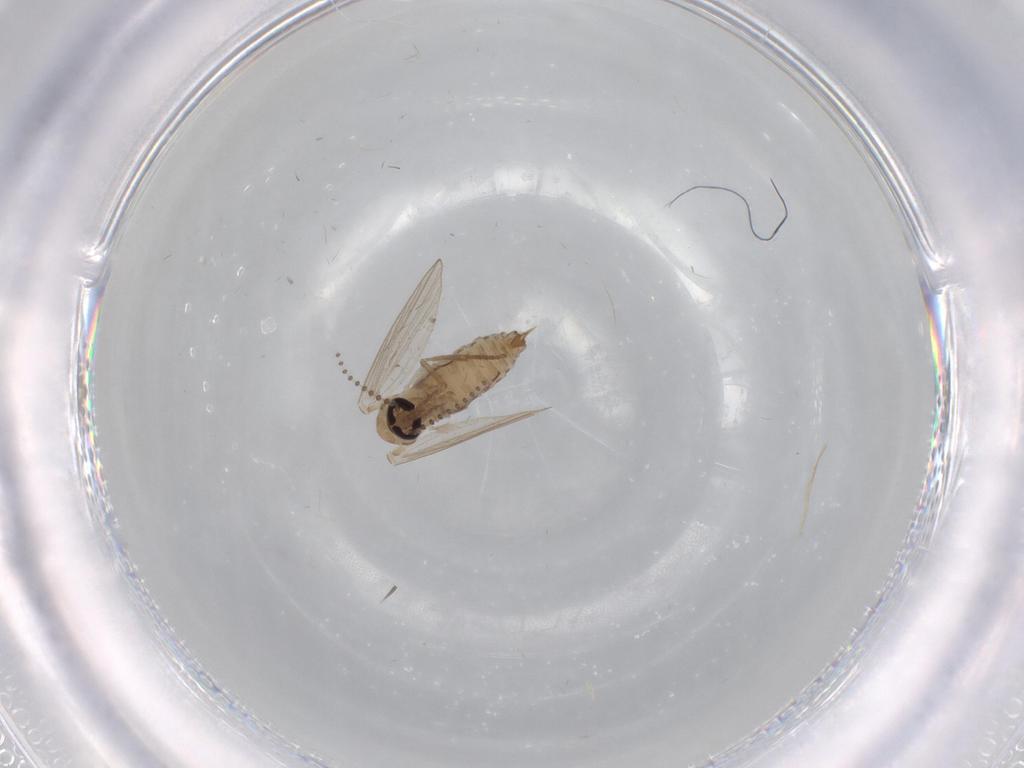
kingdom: Animalia
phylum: Arthropoda
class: Insecta
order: Diptera
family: Psychodidae
